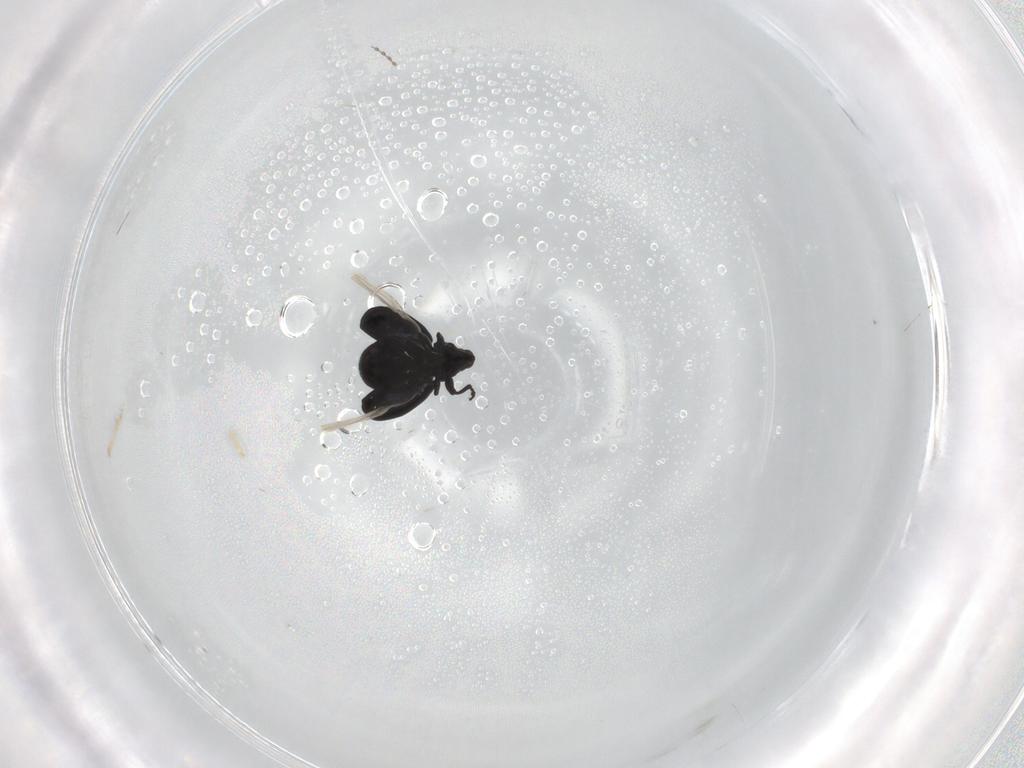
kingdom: Animalia
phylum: Arthropoda
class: Insecta
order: Coleoptera
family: Curculionidae
